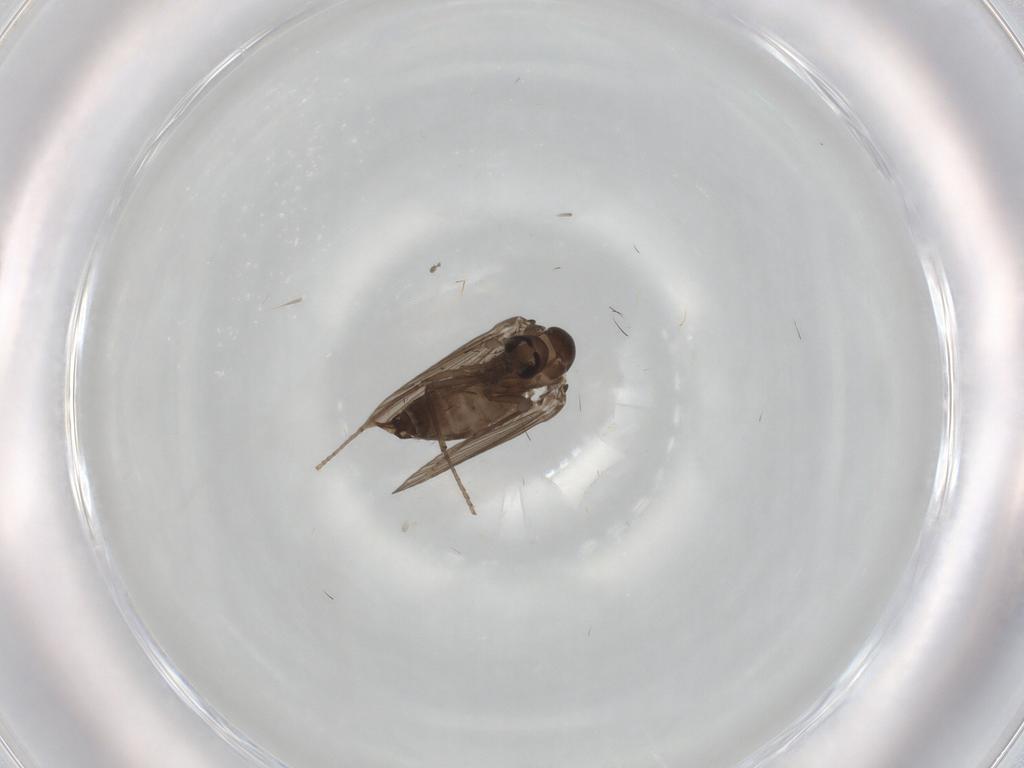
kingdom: Animalia
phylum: Arthropoda
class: Insecta
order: Diptera
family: Psychodidae
